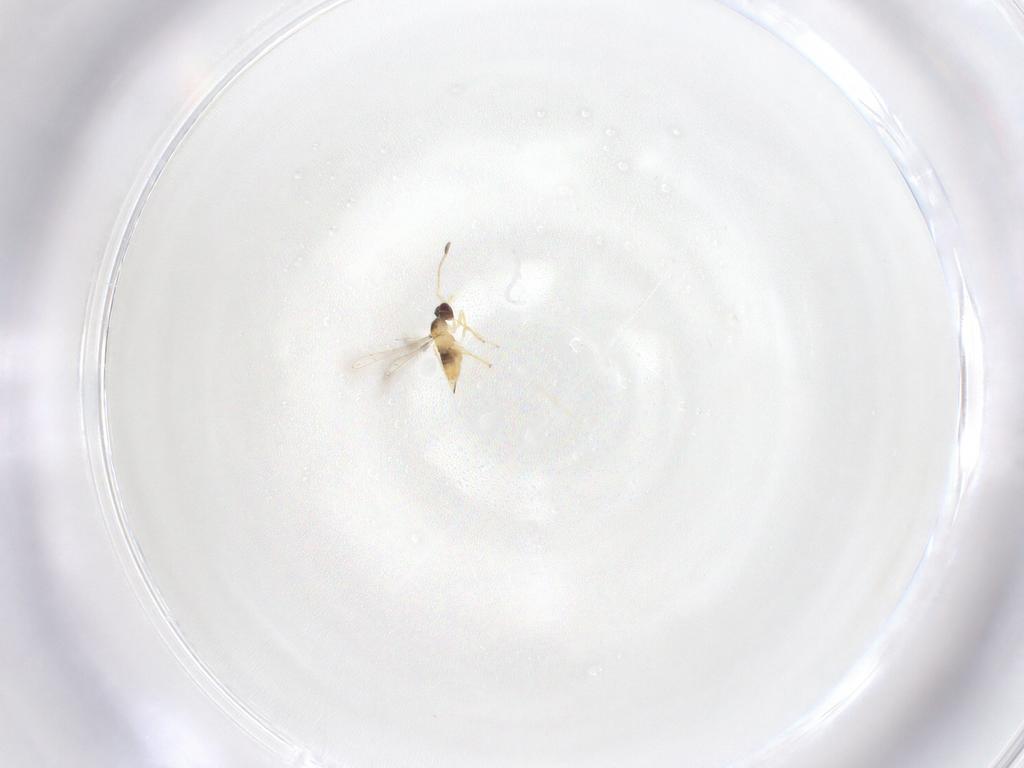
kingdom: Animalia
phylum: Arthropoda
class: Insecta
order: Hymenoptera
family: Mymaridae
